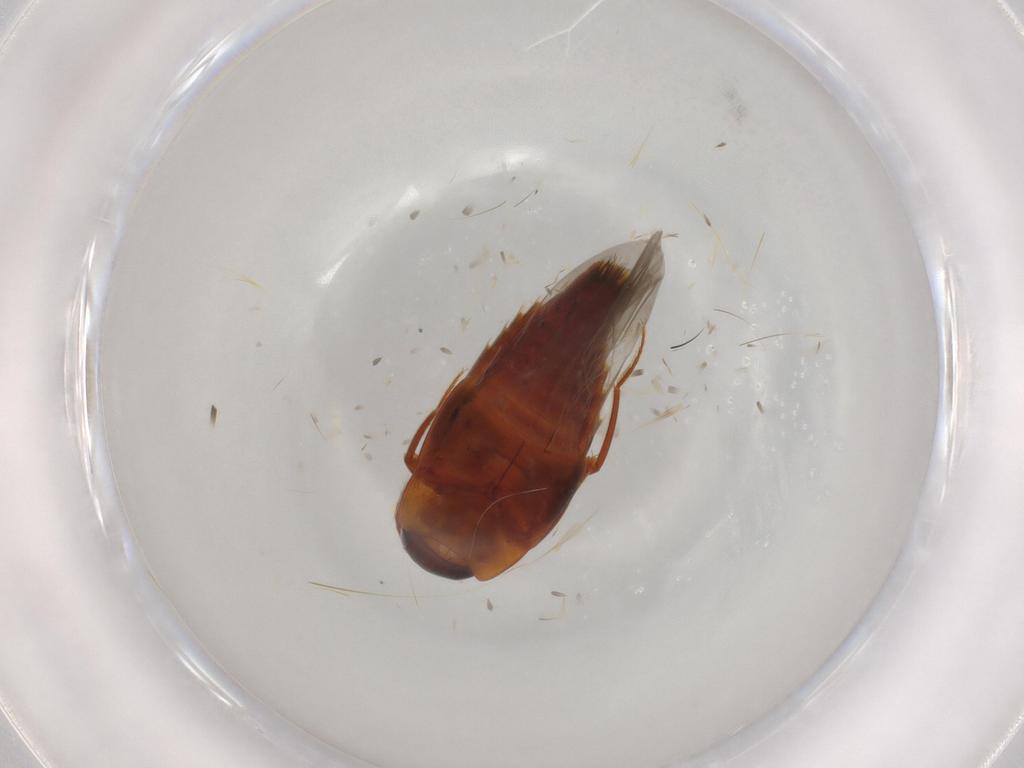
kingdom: Animalia
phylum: Arthropoda
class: Insecta
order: Coleoptera
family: Staphylinidae
